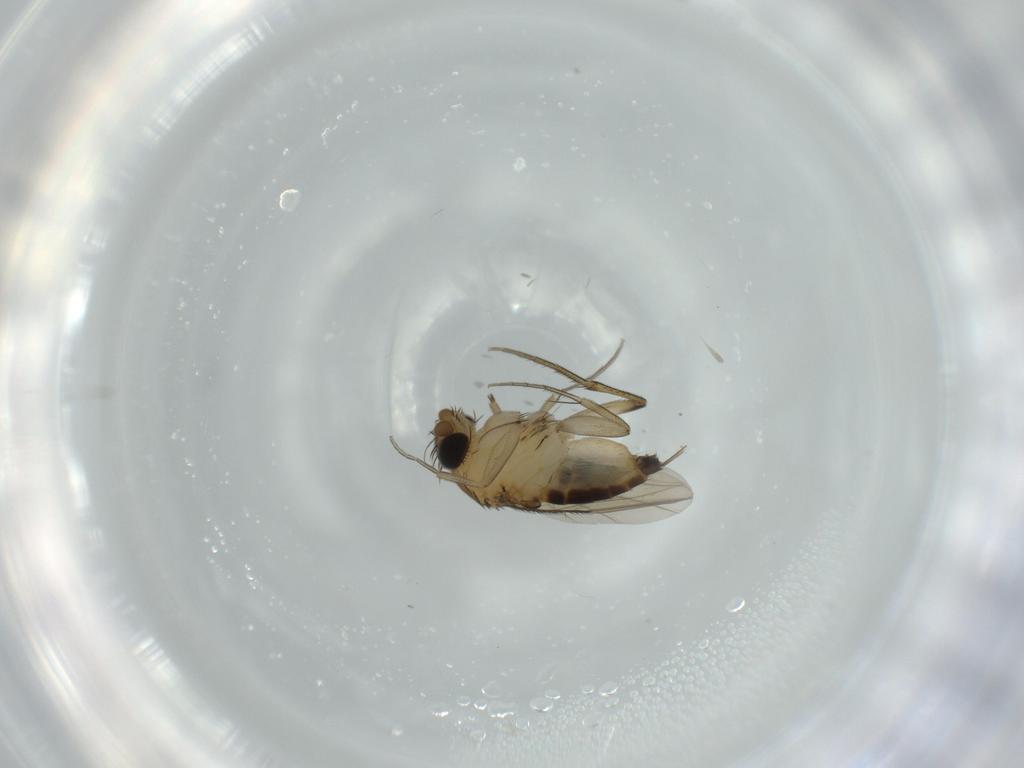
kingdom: Animalia
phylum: Arthropoda
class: Insecta
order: Diptera
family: Phoridae
